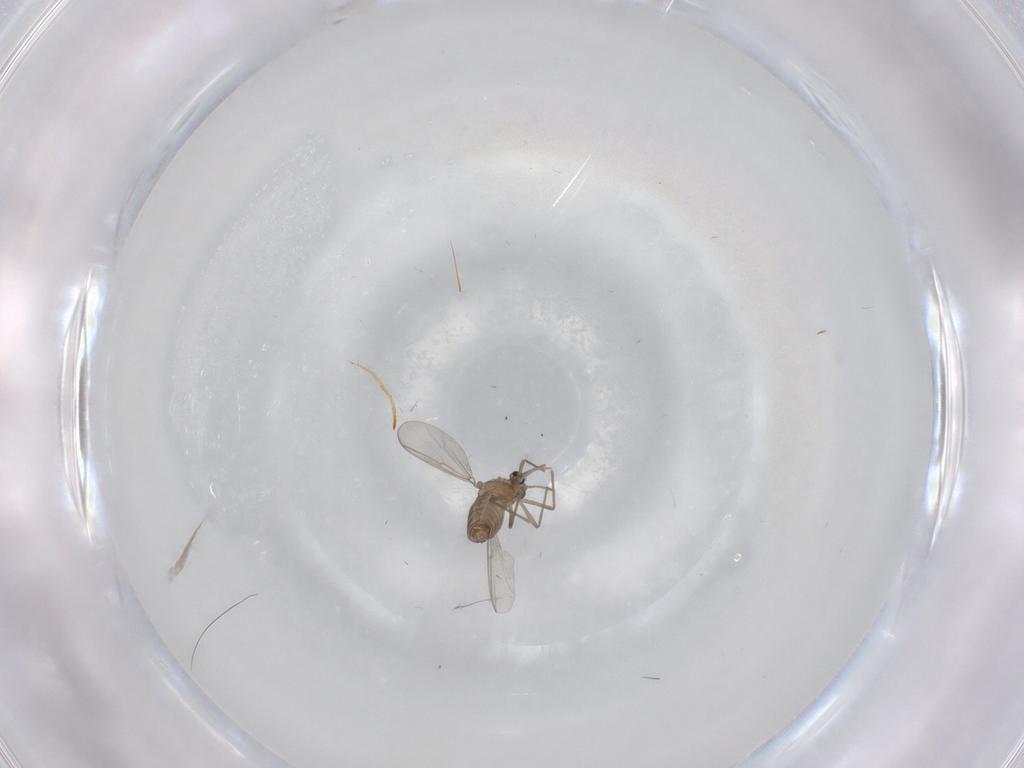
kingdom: Animalia
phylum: Arthropoda
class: Insecta
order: Diptera
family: Chironomidae
